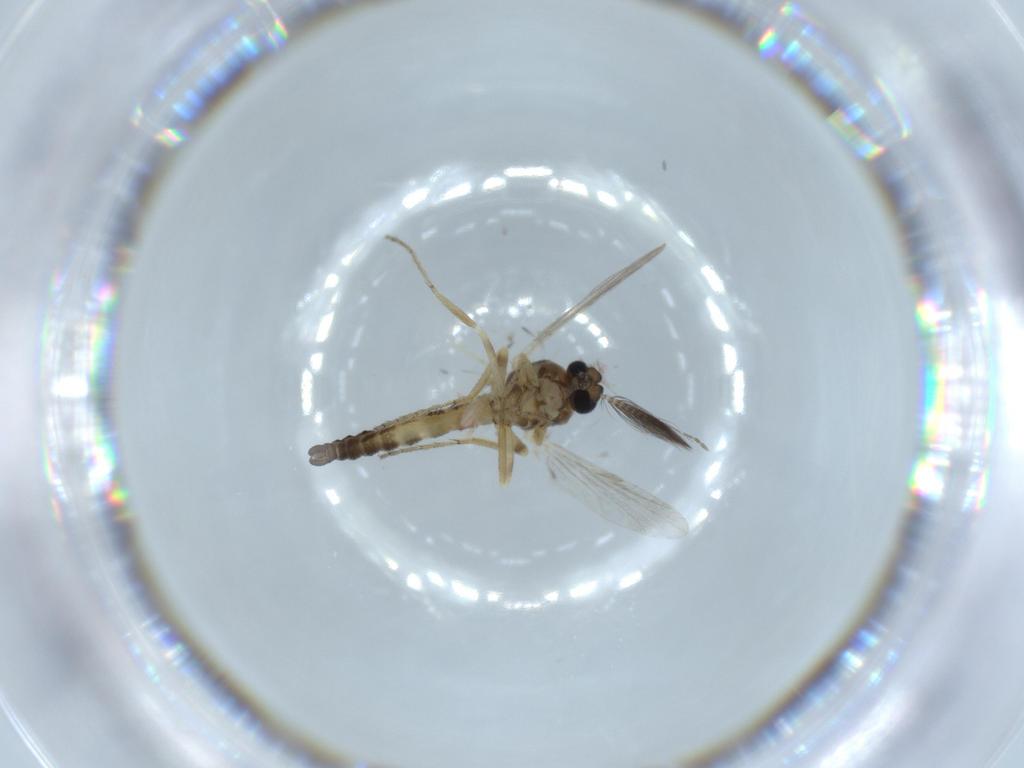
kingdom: Animalia
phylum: Arthropoda
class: Insecta
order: Diptera
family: Ceratopogonidae
